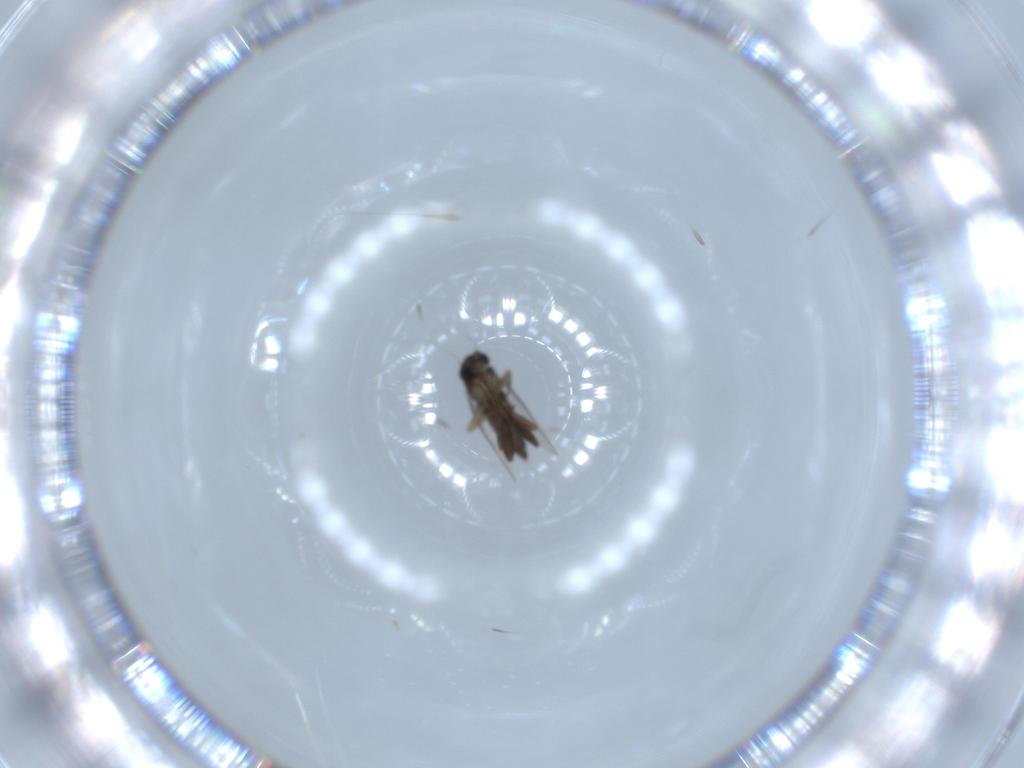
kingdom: Animalia
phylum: Arthropoda
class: Insecta
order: Diptera
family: Phoridae
